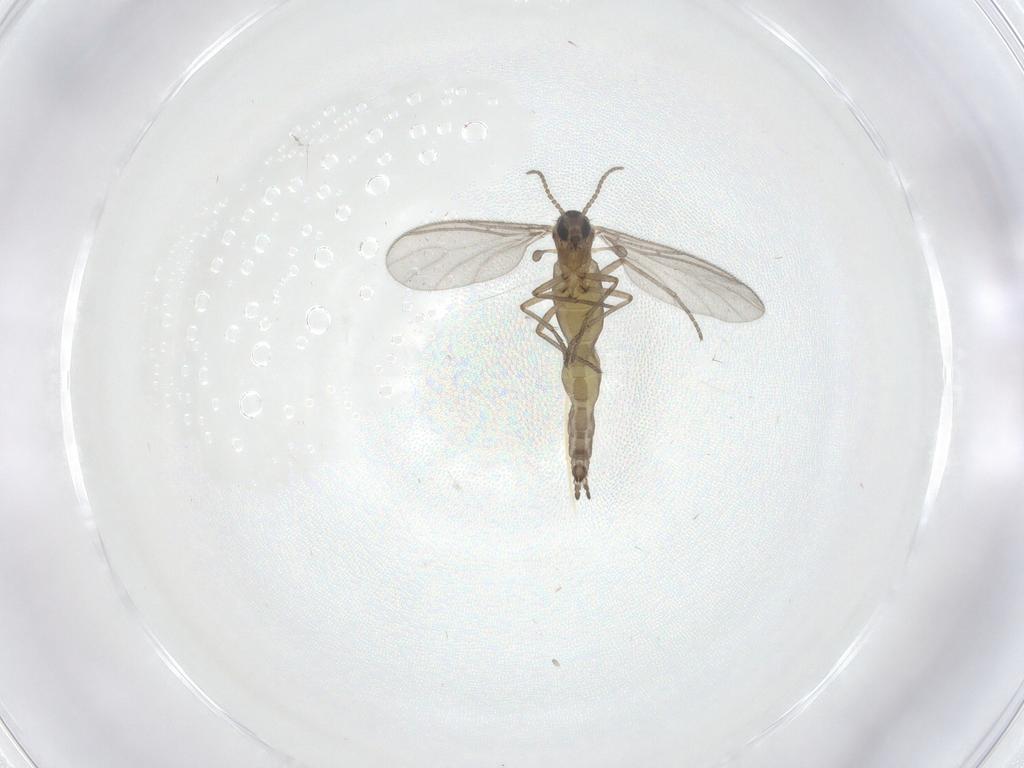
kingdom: Animalia
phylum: Arthropoda
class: Insecta
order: Diptera
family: Sciaridae
